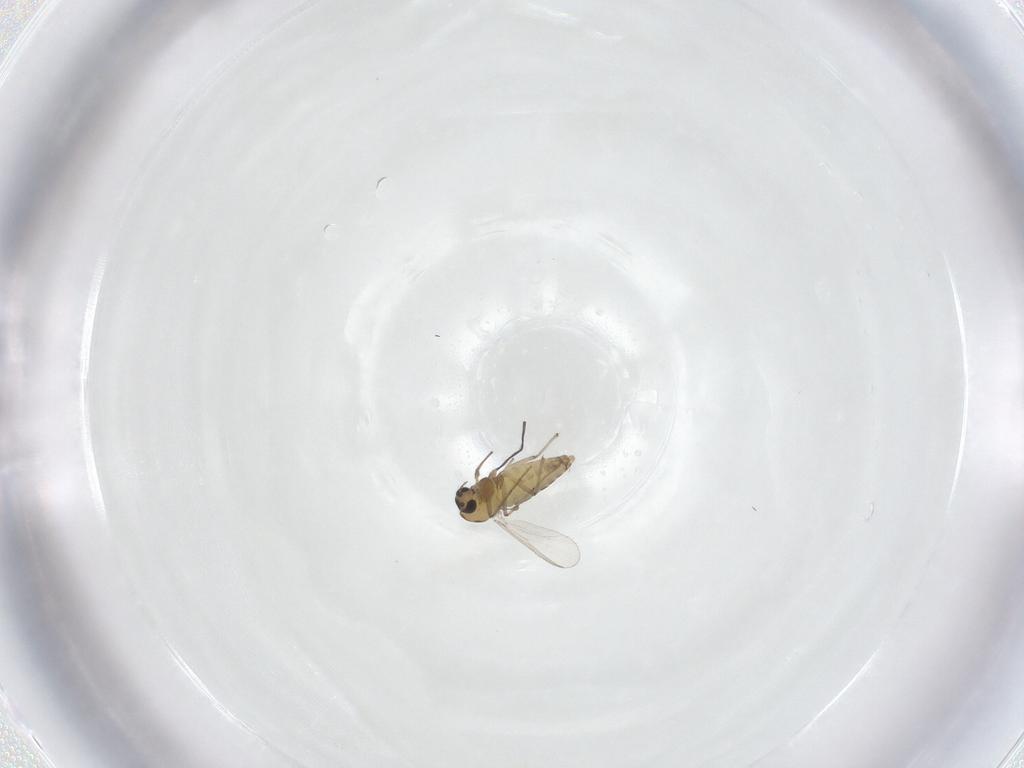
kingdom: Animalia
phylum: Arthropoda
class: Insecta
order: Diptera
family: Chironomidae
